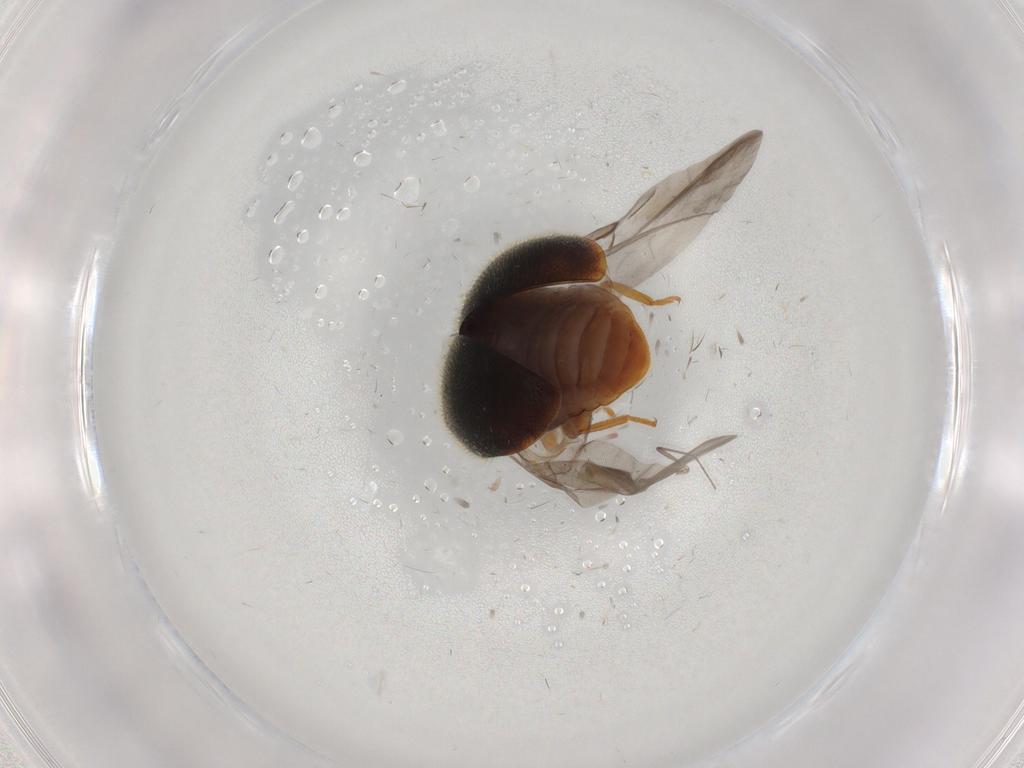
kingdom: Animalia
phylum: Arthropoda
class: Insecta
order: Coleoptera
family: Coccinellidae
